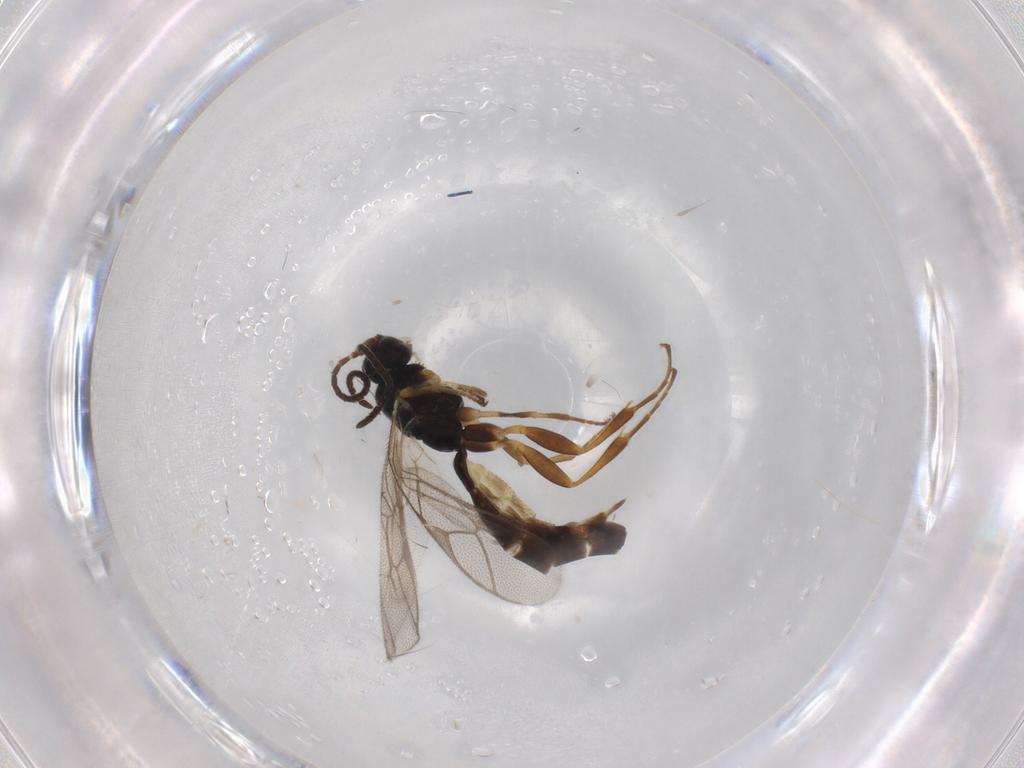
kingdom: Animalia
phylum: Arthropoda
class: Insecta
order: Hymenoptera
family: Ichneumonidae
